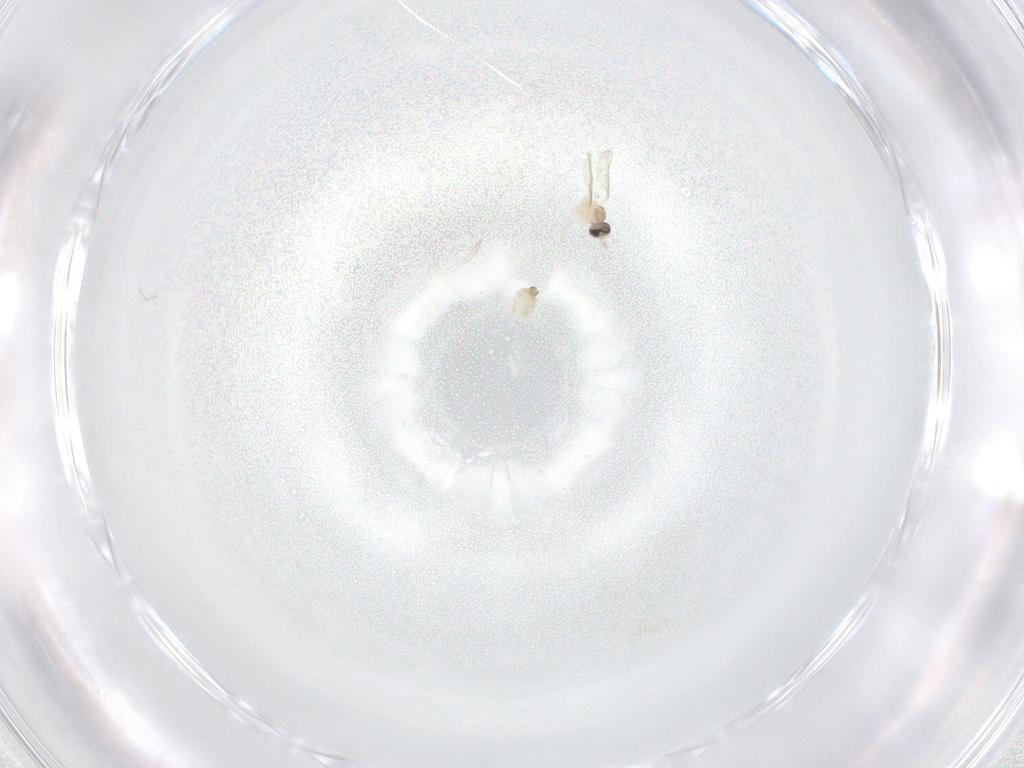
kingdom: Animalia
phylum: Arthropoda
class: Insecta
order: Diptera
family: Cecidomyiidae
